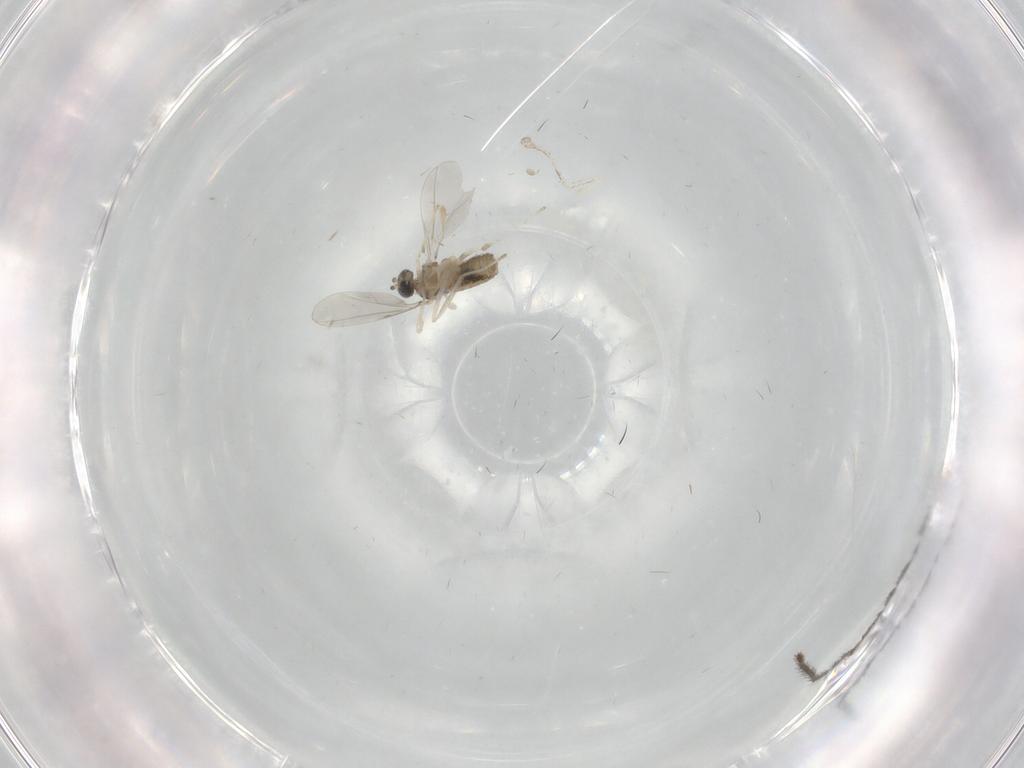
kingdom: Animalia
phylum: Arthropoda
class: Insecta
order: Diptera
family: Cecidomyiidae
